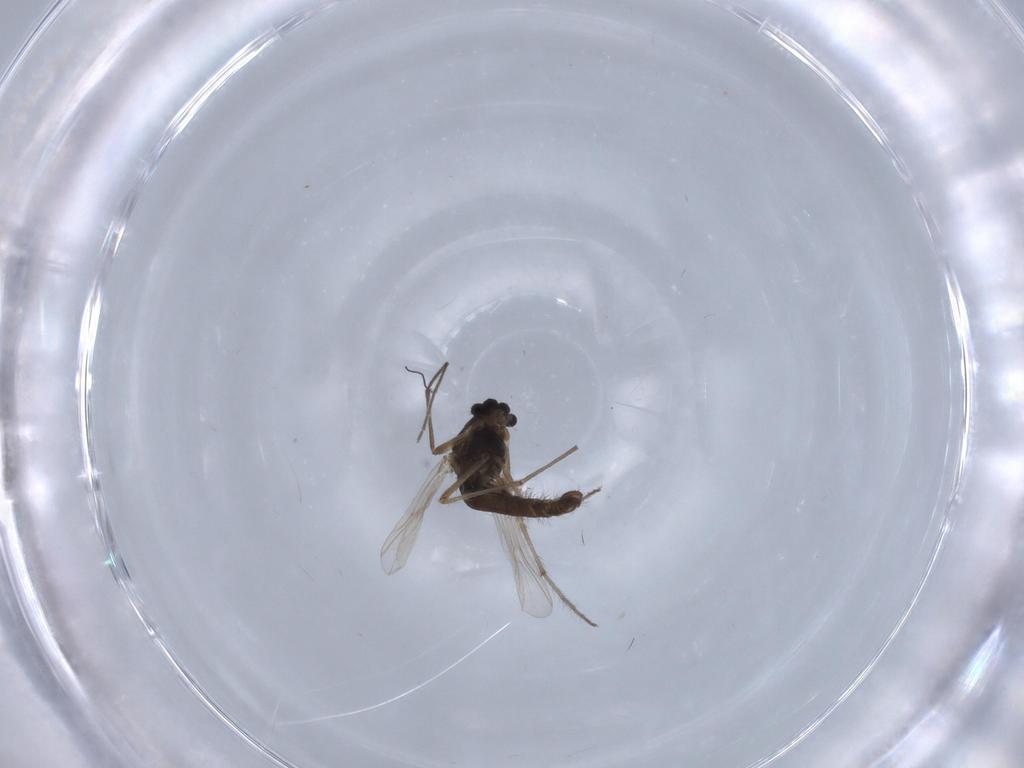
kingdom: Animalia
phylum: Arthropoda
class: Insecta
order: Diptera
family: Chironomidae
